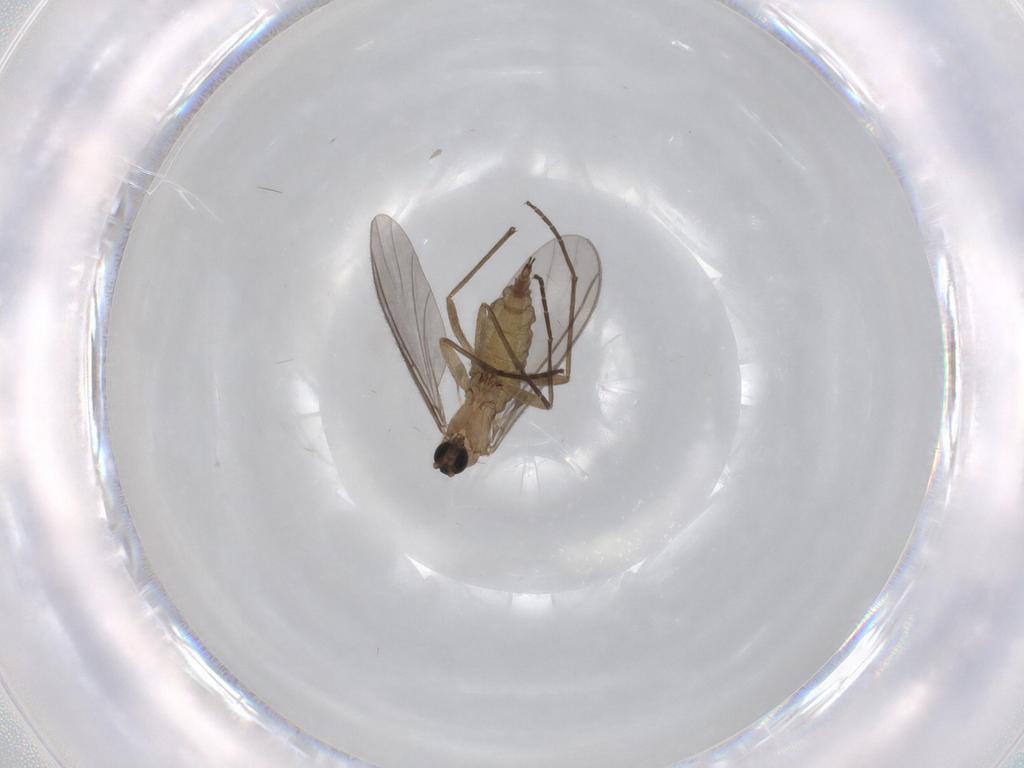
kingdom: Animalia
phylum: Arthropoda
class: Insecta
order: Diptera
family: Sciaridae
